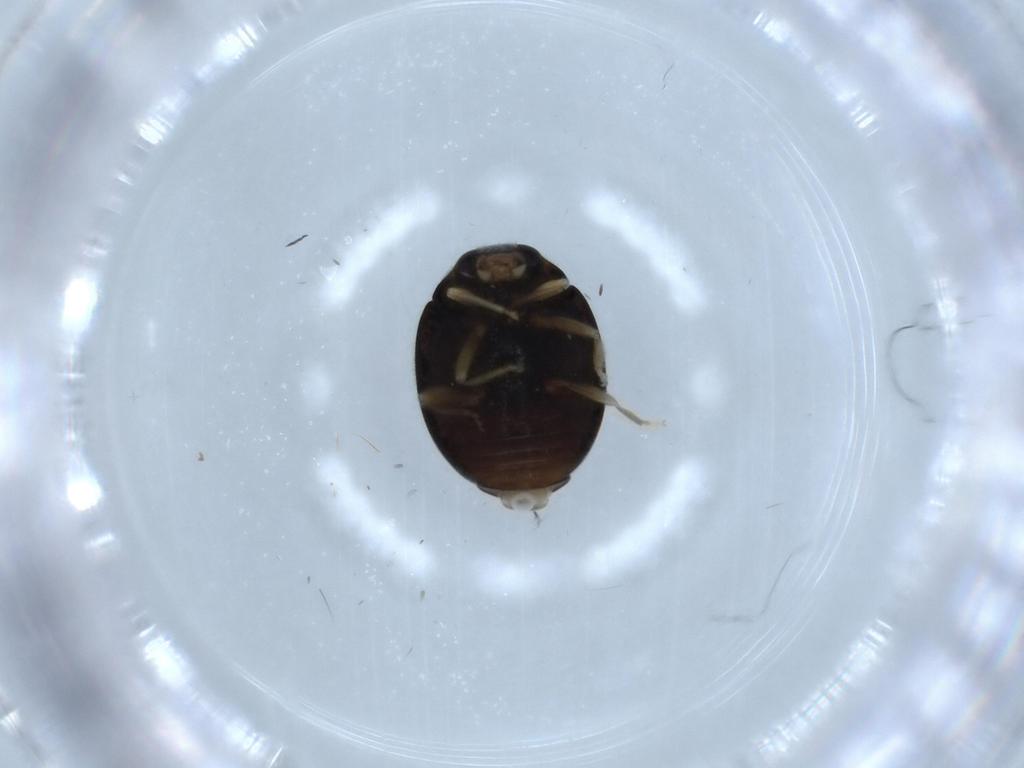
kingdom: Animalia
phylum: Arthropoda
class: Insecta
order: Coleoptera
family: Coccinellidae
